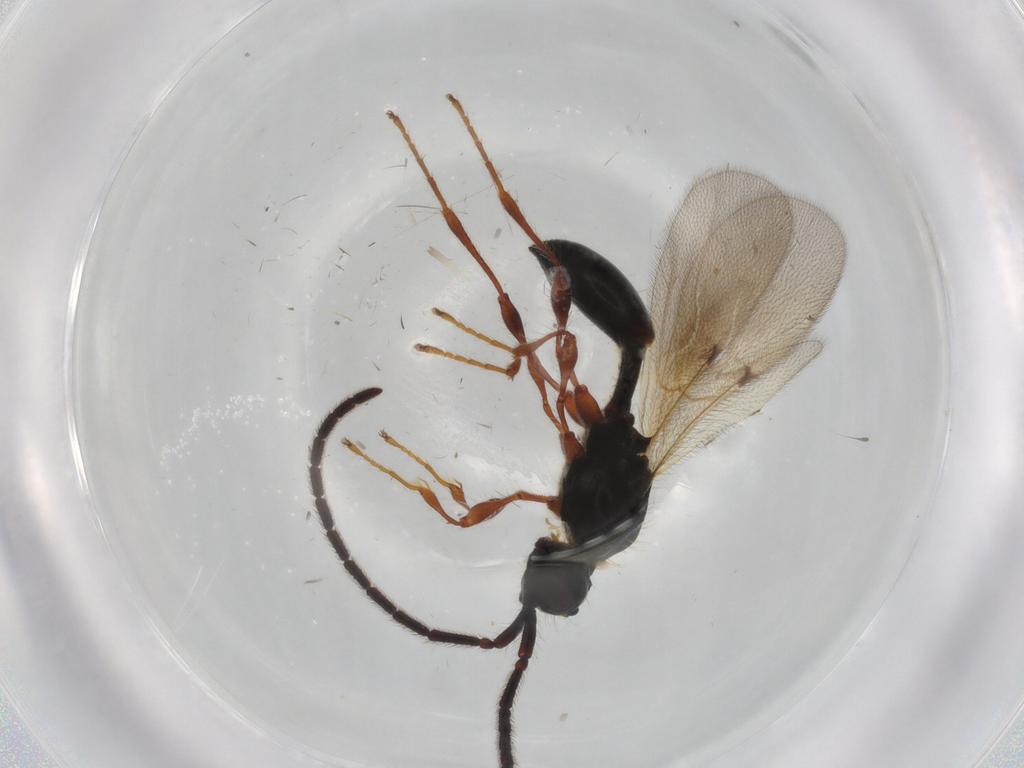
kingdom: Animalia
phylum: Arthropoda
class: Insecta
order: Hymenoptera
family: Diapriidae
